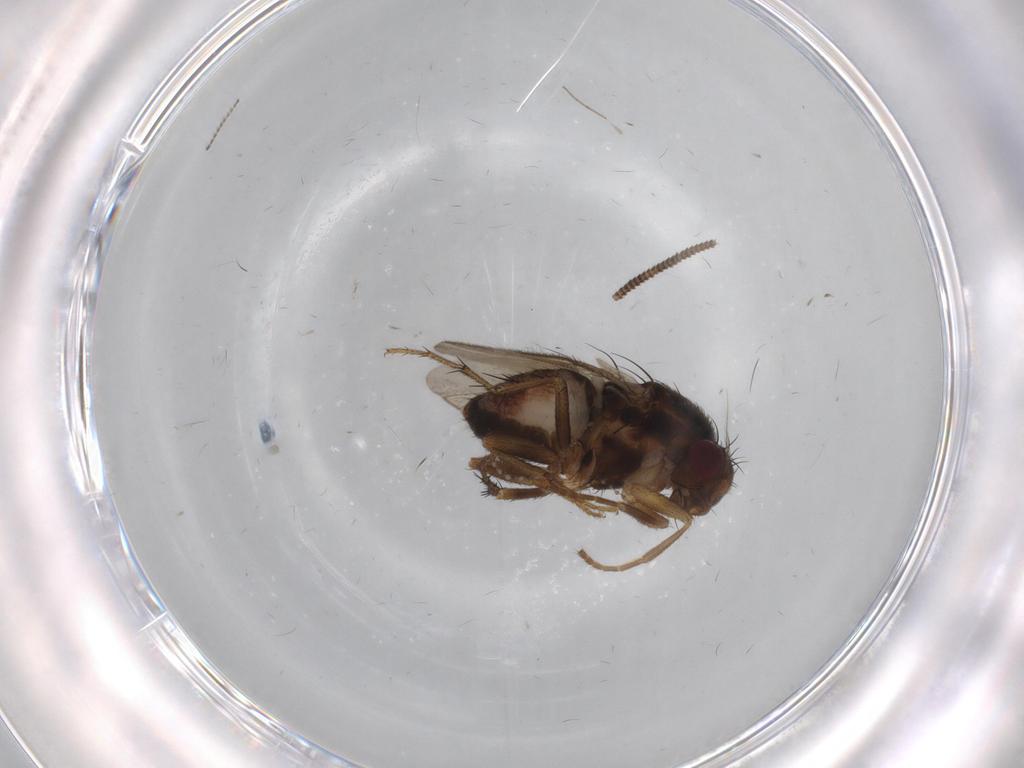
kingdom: Animalia
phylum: Arthropoda
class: Insecta
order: Diptera
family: Sphaeroceridae
